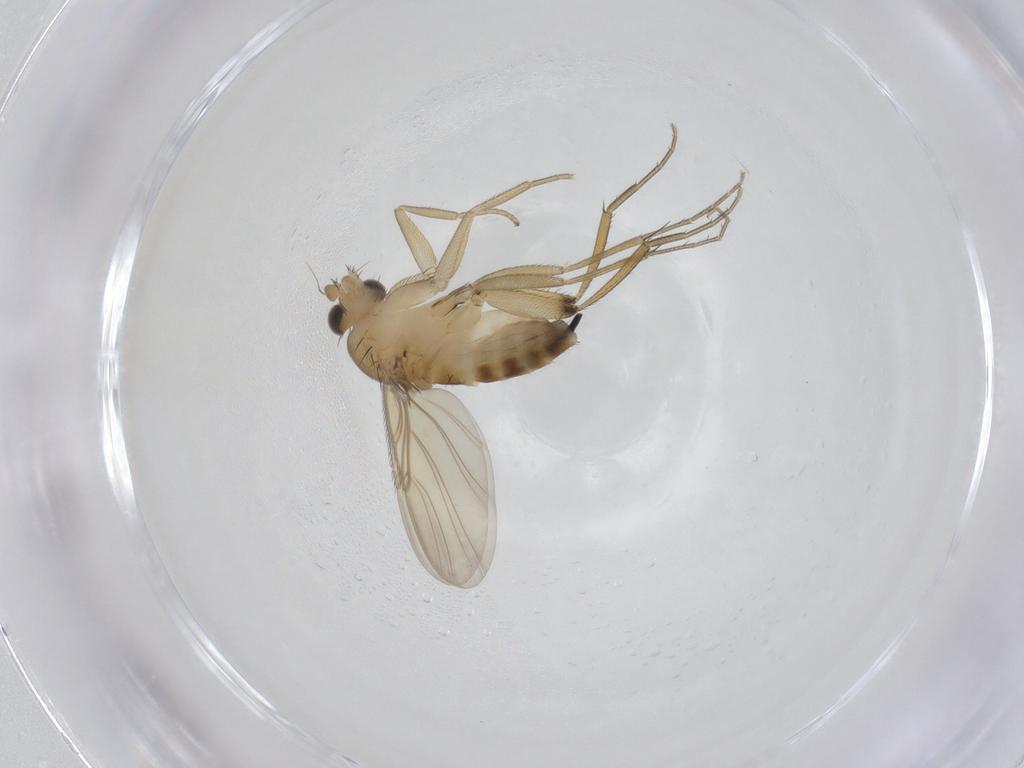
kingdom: Animalia
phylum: Arthropoda
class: Insecta
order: Diptera
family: Phoridae
